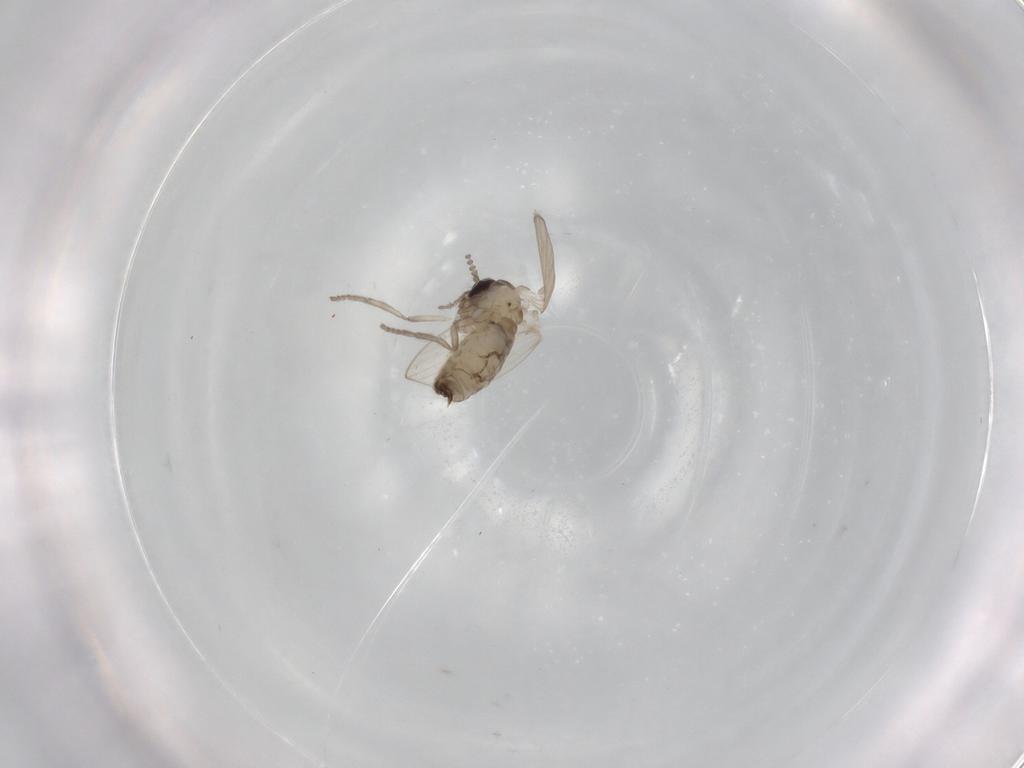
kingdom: Animalia
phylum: Arthropoda
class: Insecta
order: Diptera
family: Psychodidae
